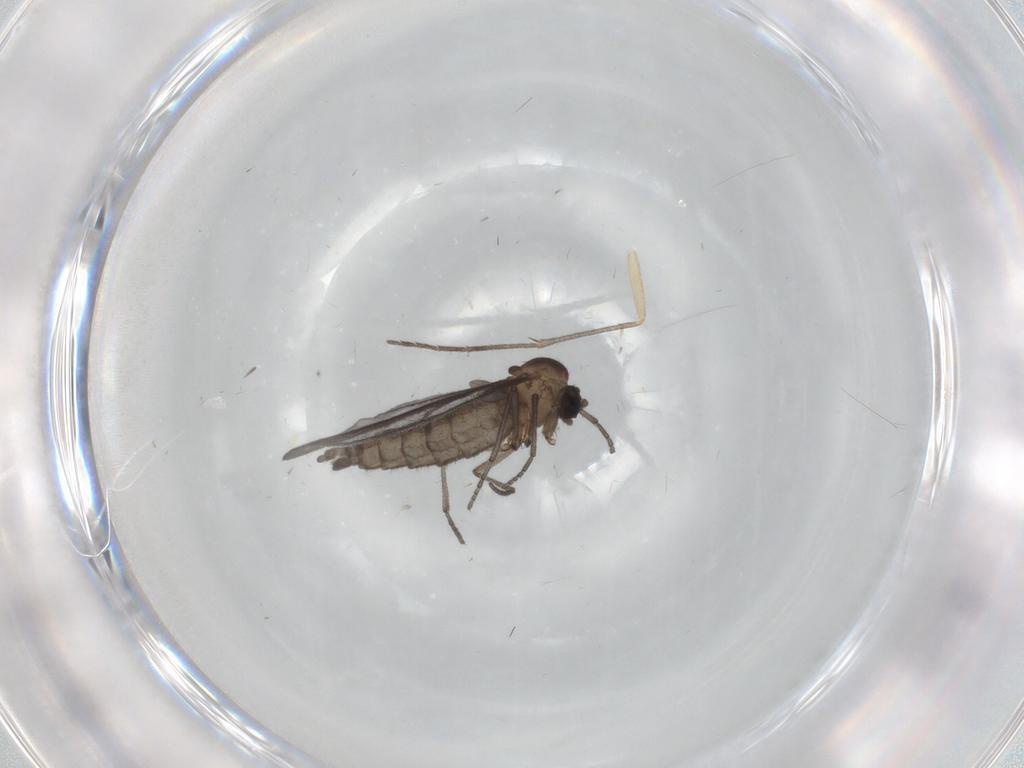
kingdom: Animalia
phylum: Arthropoda
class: Insecta
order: Diptera
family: Sciaridae
